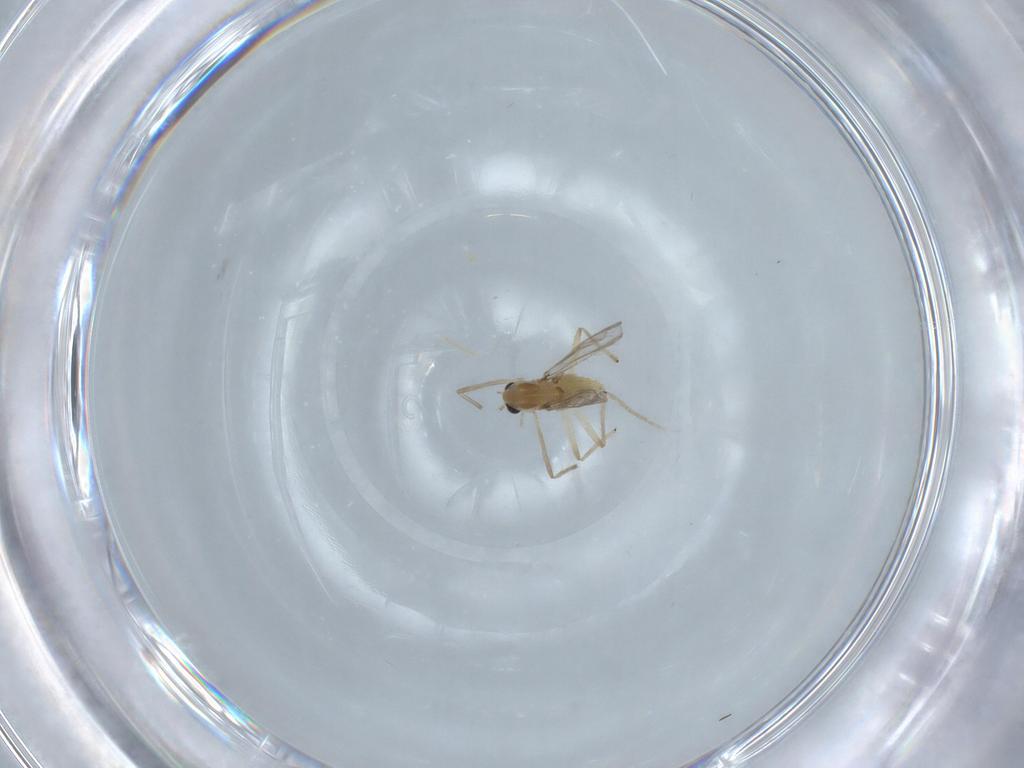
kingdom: Animalia
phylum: Arthropoda
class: Insecta
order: Diptera
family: Chironomidae
